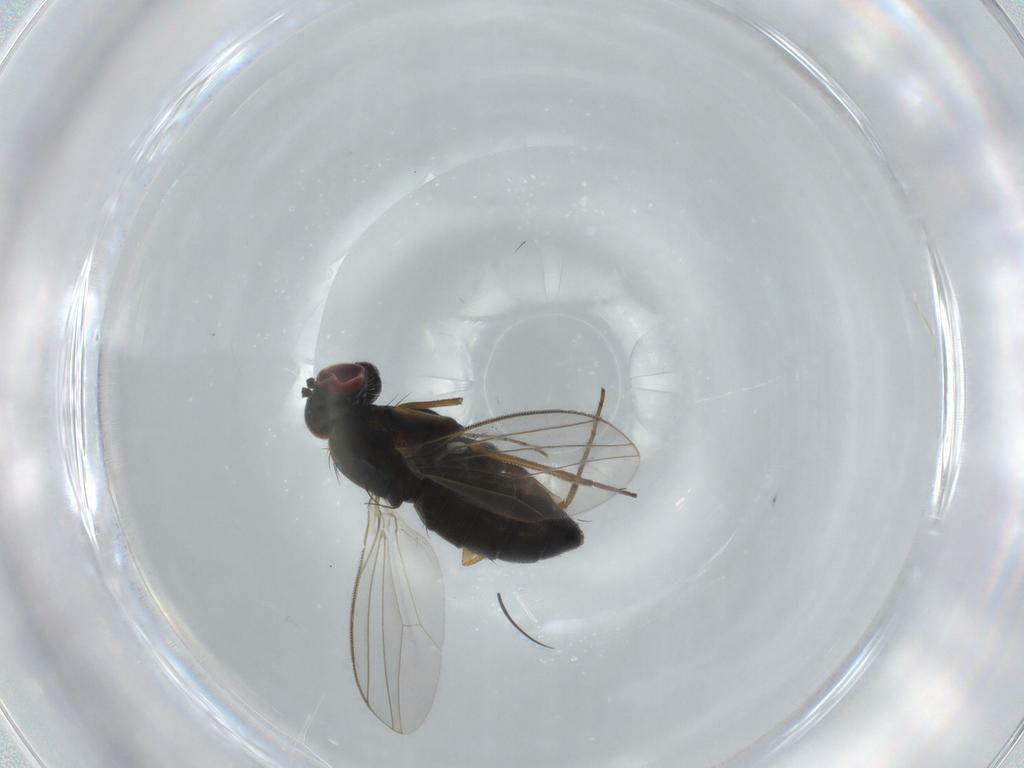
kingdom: Animalia
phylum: Arthropoda
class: Insecta
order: Diptera
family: Dolichopodidae
